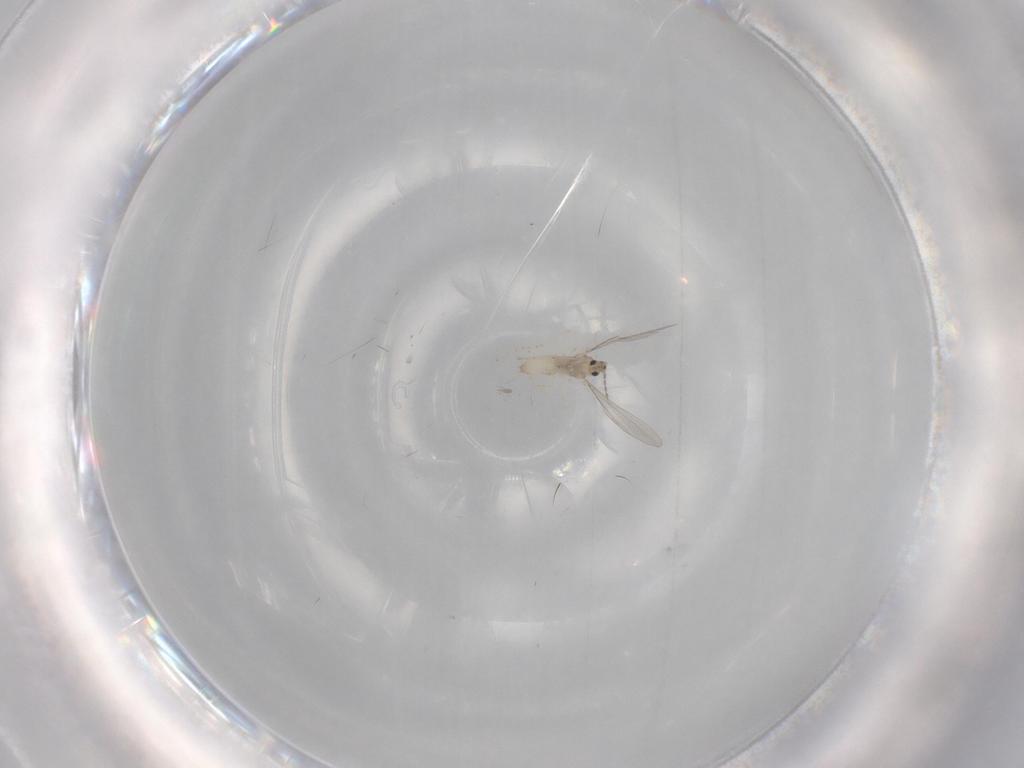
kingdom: Animalia
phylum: Arthropoda
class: Insecta
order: Diptera
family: Cecidomyiidae
